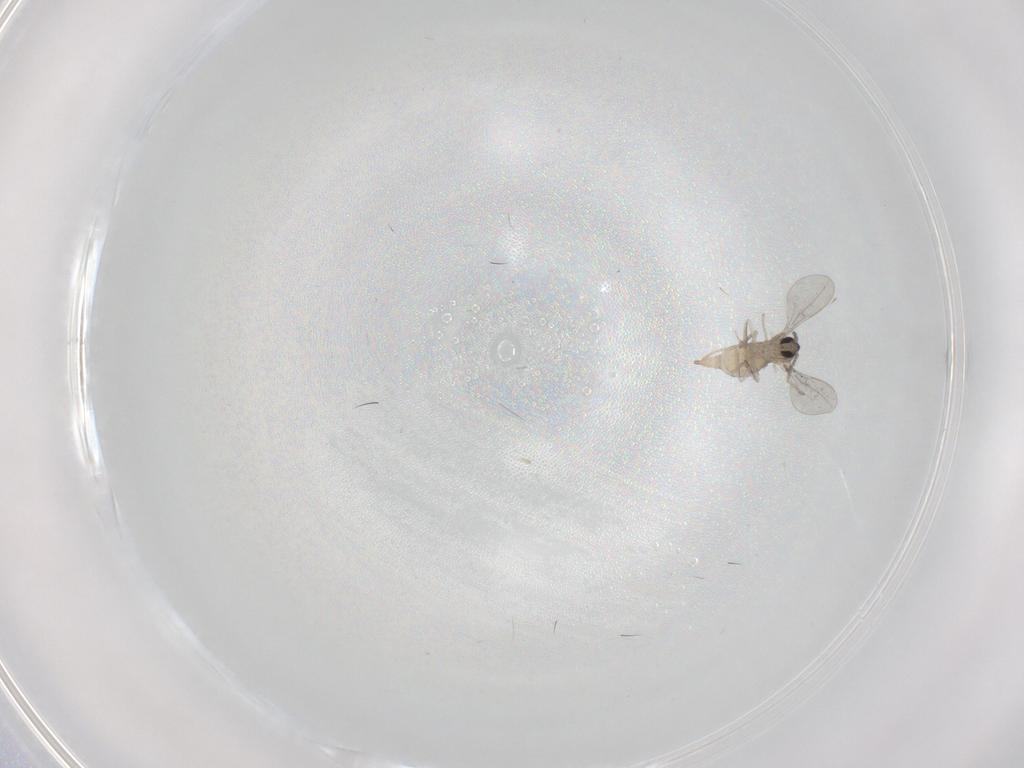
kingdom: Animalia
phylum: Arthropoda
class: Insecta
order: Diptera
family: Cecidomyiidae
